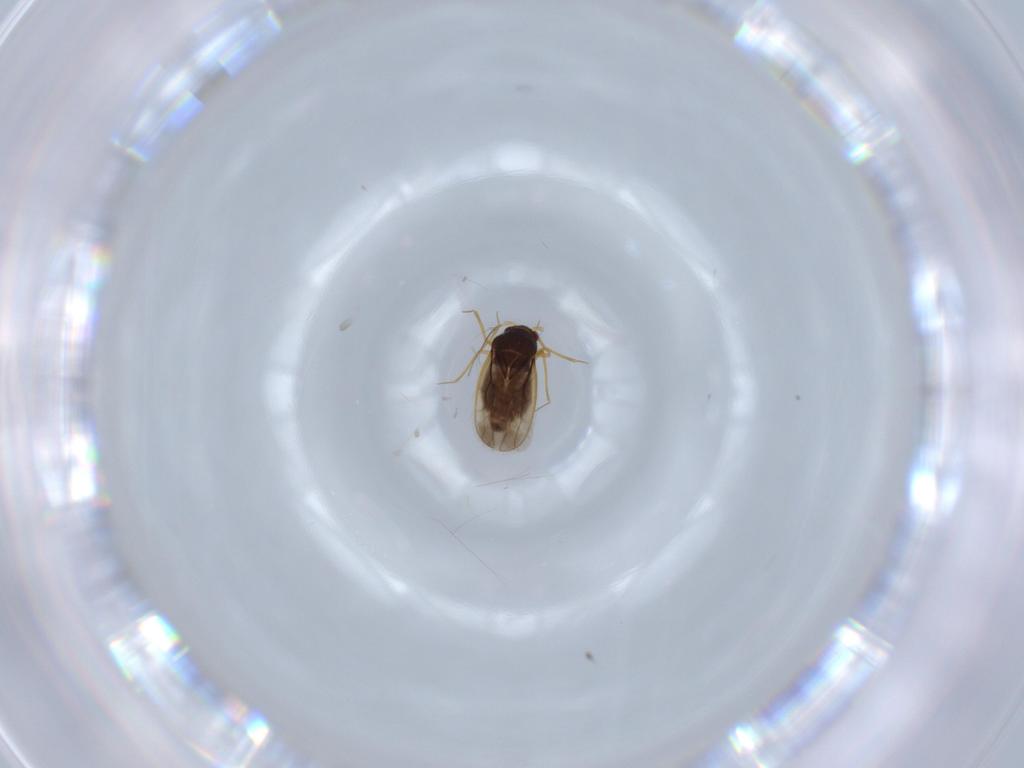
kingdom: Animalia
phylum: Arthropoda
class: Insecta
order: Hemiptera
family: Schizopteridae
